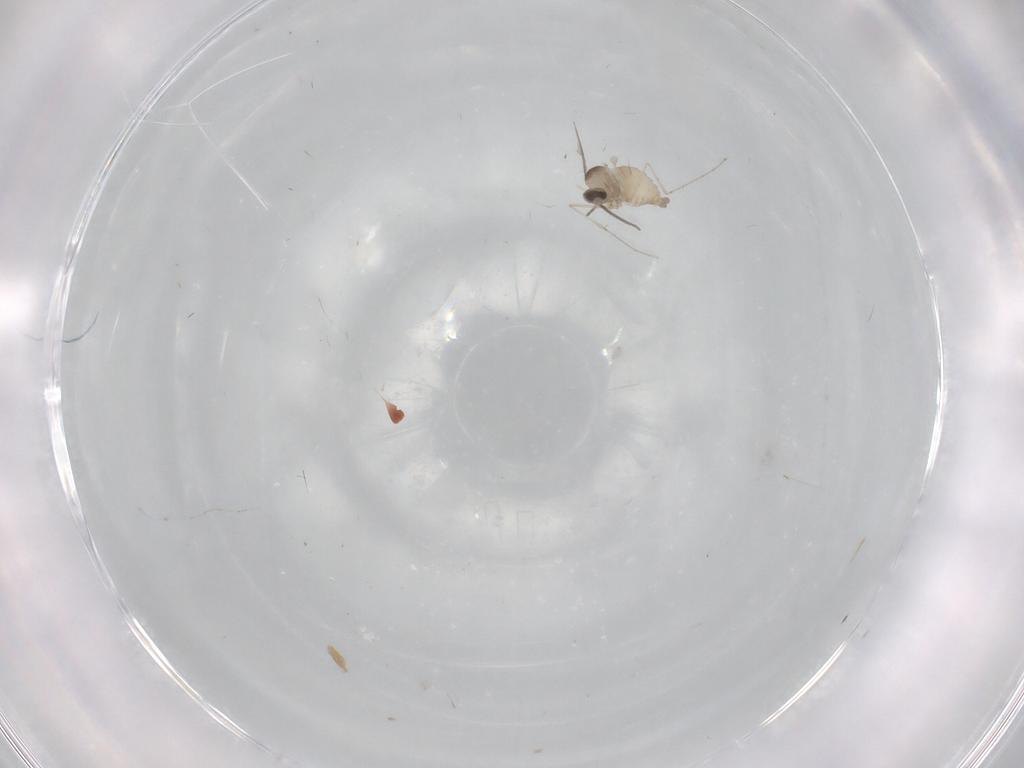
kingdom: Animalia
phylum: Arthropoda
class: Insecta
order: Diptera
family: Cecidomyiidae
